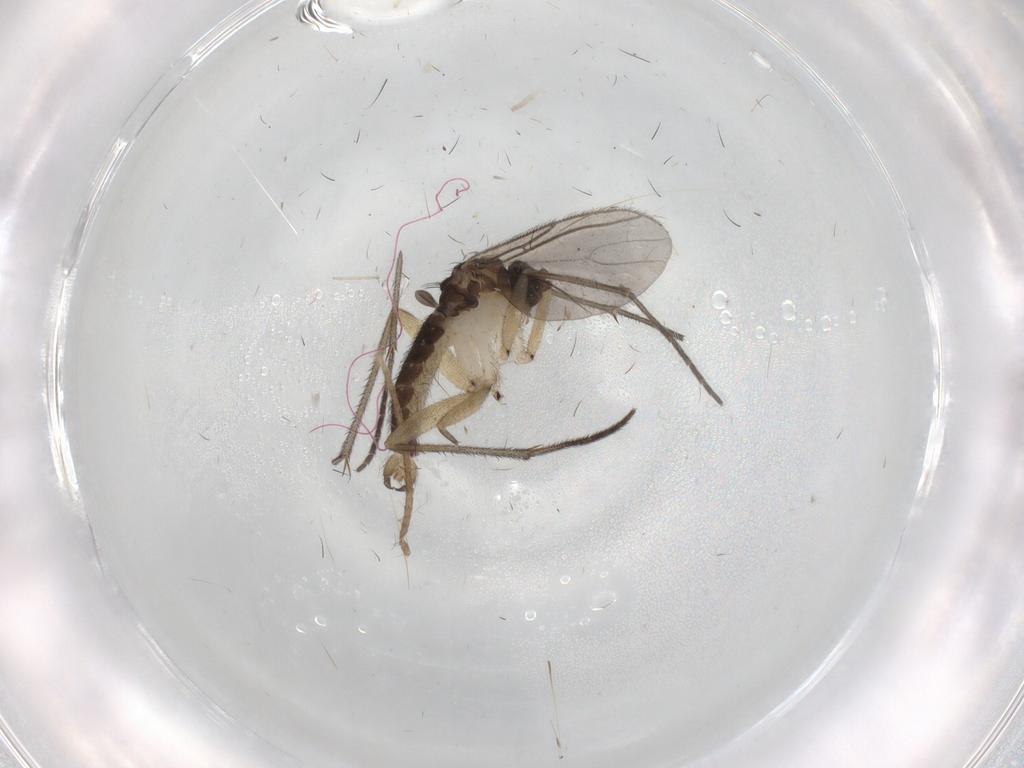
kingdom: Animalia
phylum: Arthropoda
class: Insecta
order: Diptera
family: Sciaridae
